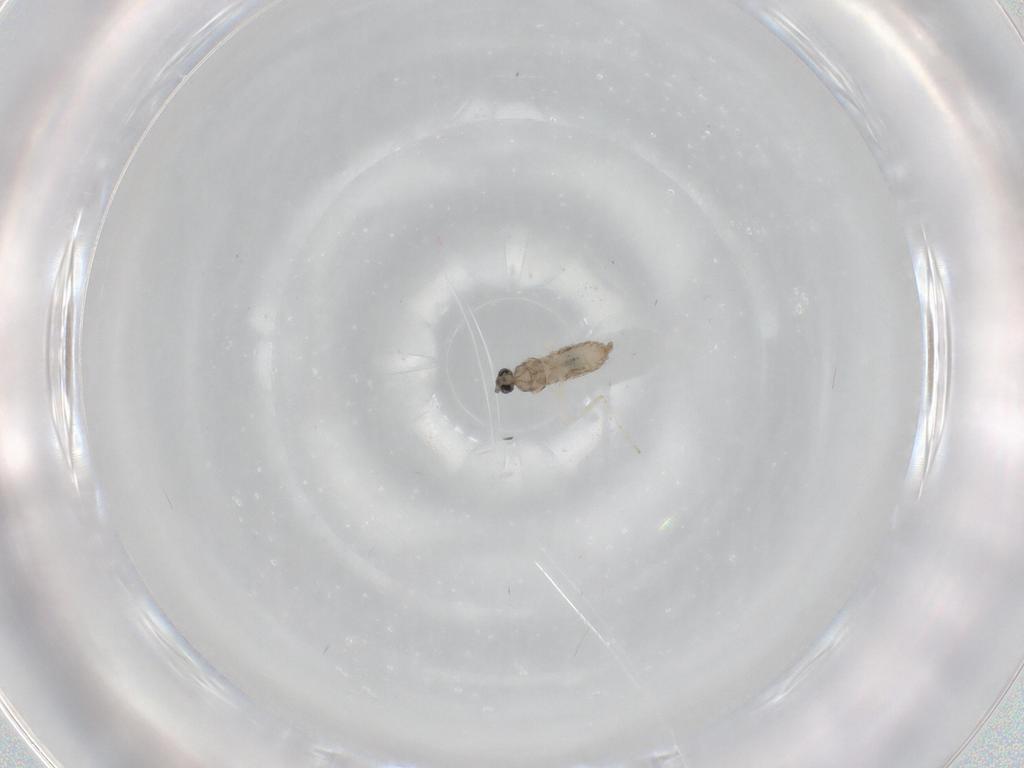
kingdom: Animalia
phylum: Arthropoda
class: Insecta
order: Diptera
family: Cecidomyiidae
